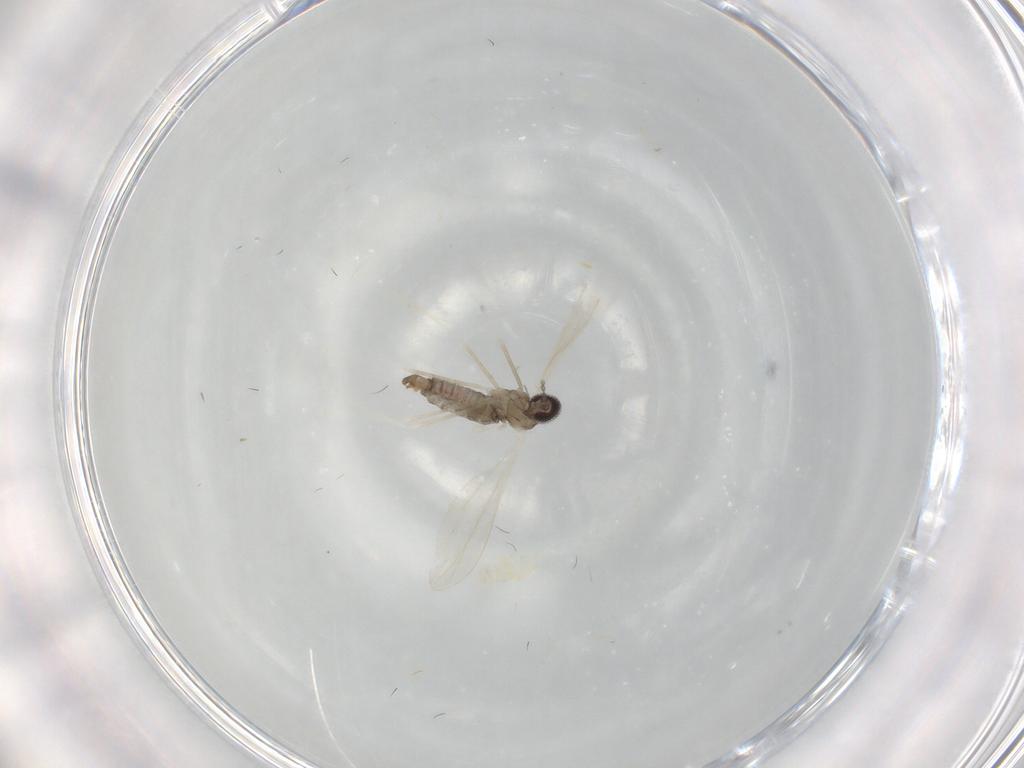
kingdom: Animalia
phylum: Arthropoda
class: Insecta
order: Diptera
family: Cecidomyiidae
